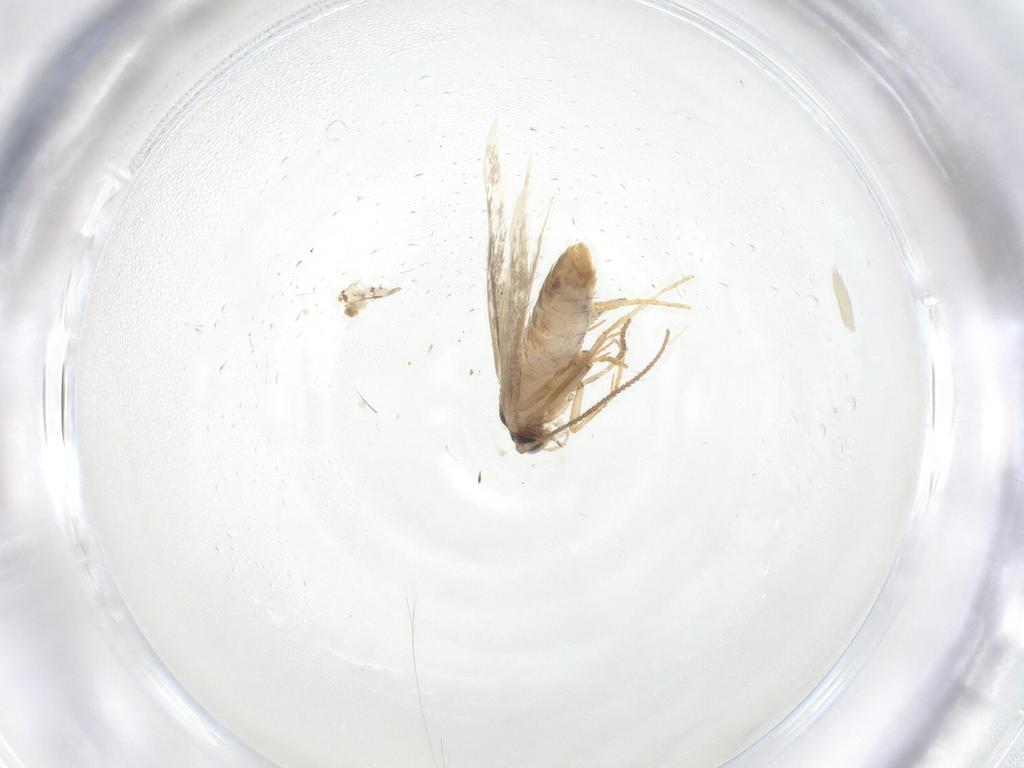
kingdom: Animalia
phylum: Arthropoda
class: Insecta
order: Lepidoptera
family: Nepticulidae
